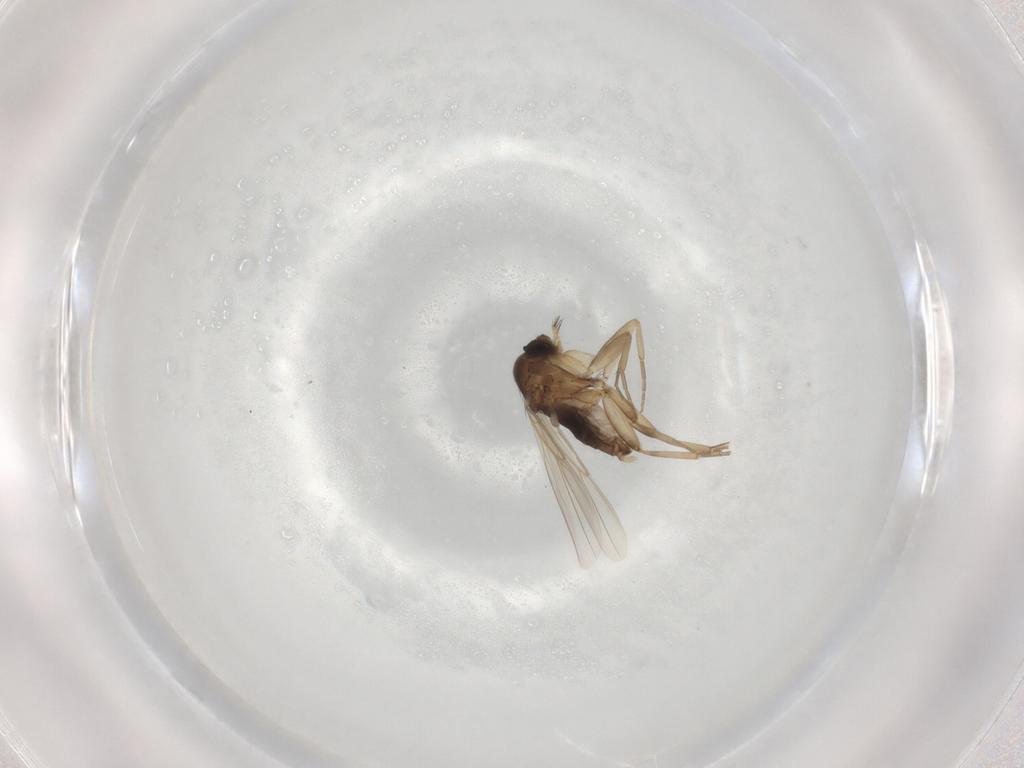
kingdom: Animalia
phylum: Arthropoda
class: Insecta
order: Diptera
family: Phoridae
